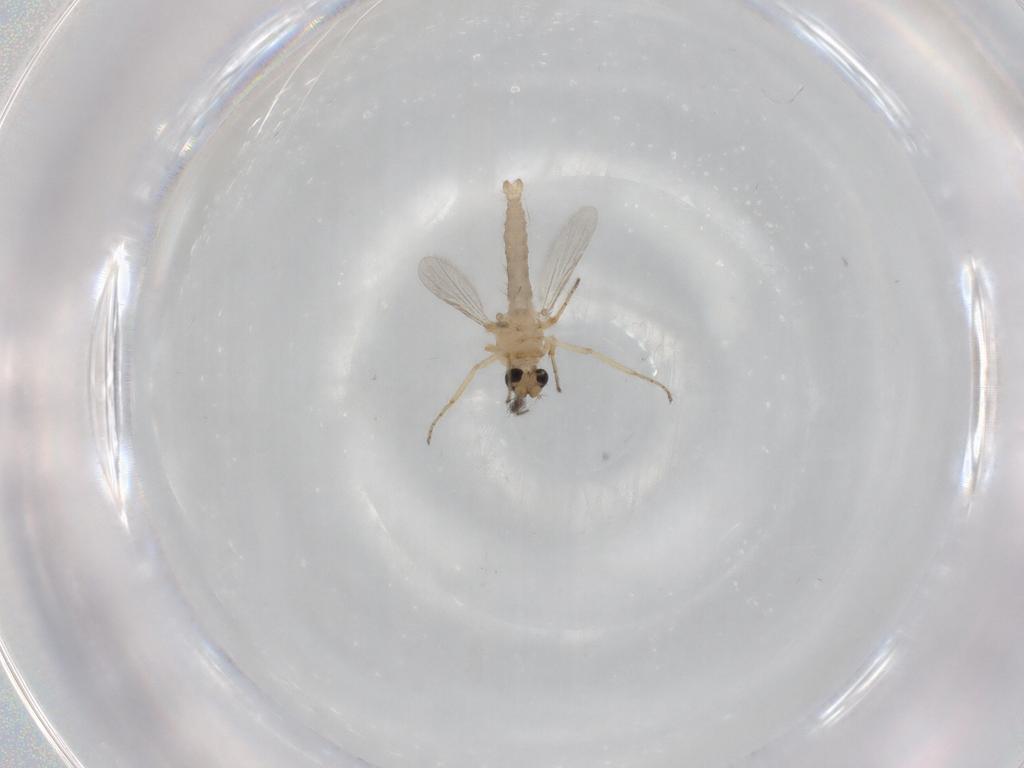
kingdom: Animalia
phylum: Arthropoda
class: Insecta
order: Diptera
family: Ceratopogonidae
